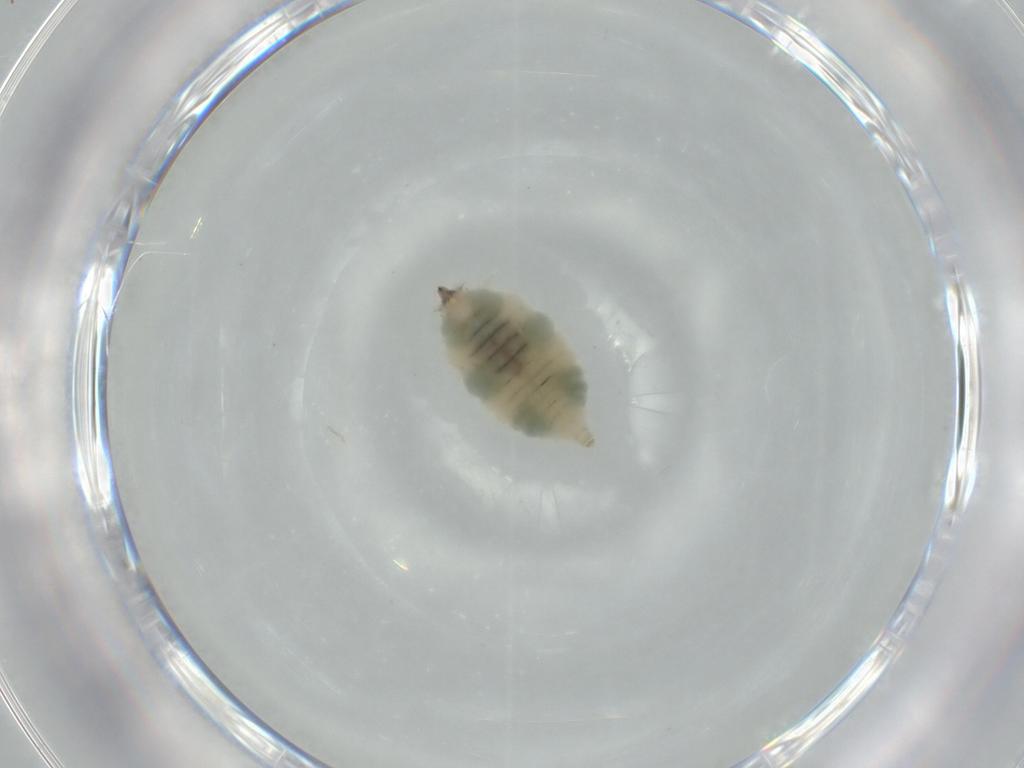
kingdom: Animalia
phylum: Arthropoda
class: Insecta
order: Neuroptera
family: Coniopterygidae
